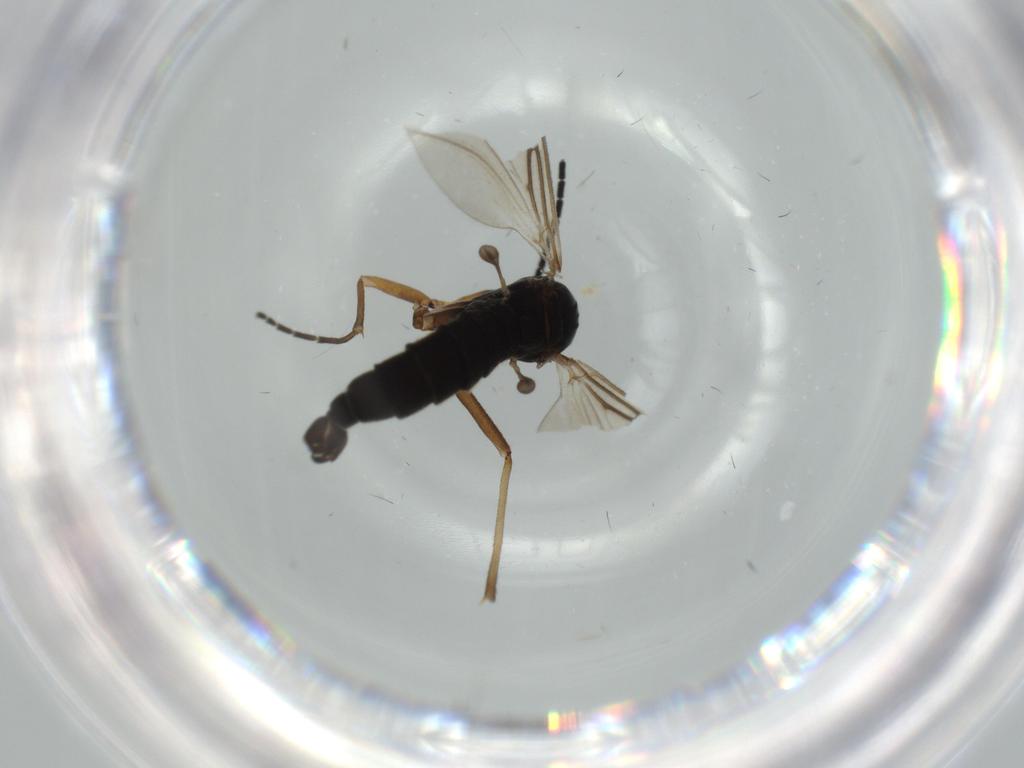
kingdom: Animalia
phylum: Arthropoda
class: Insecta
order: Diptera
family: Sciaridae
